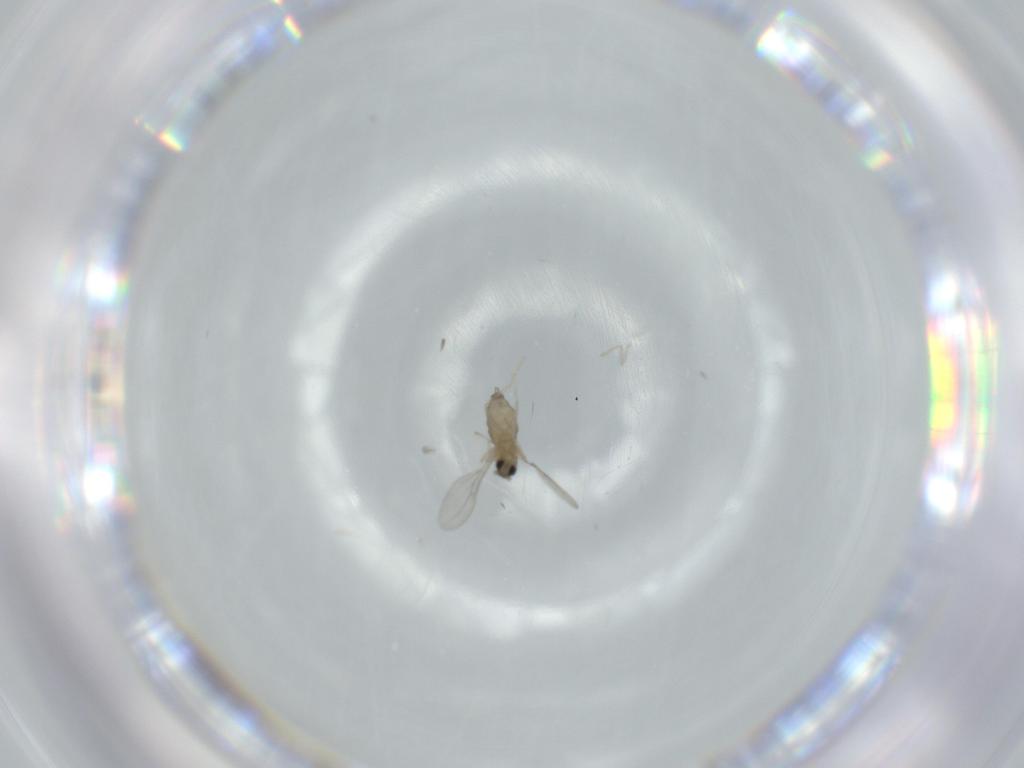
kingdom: Animalia
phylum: Arthropoda
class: Insecta
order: Diptera
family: Cecidomyiidae
